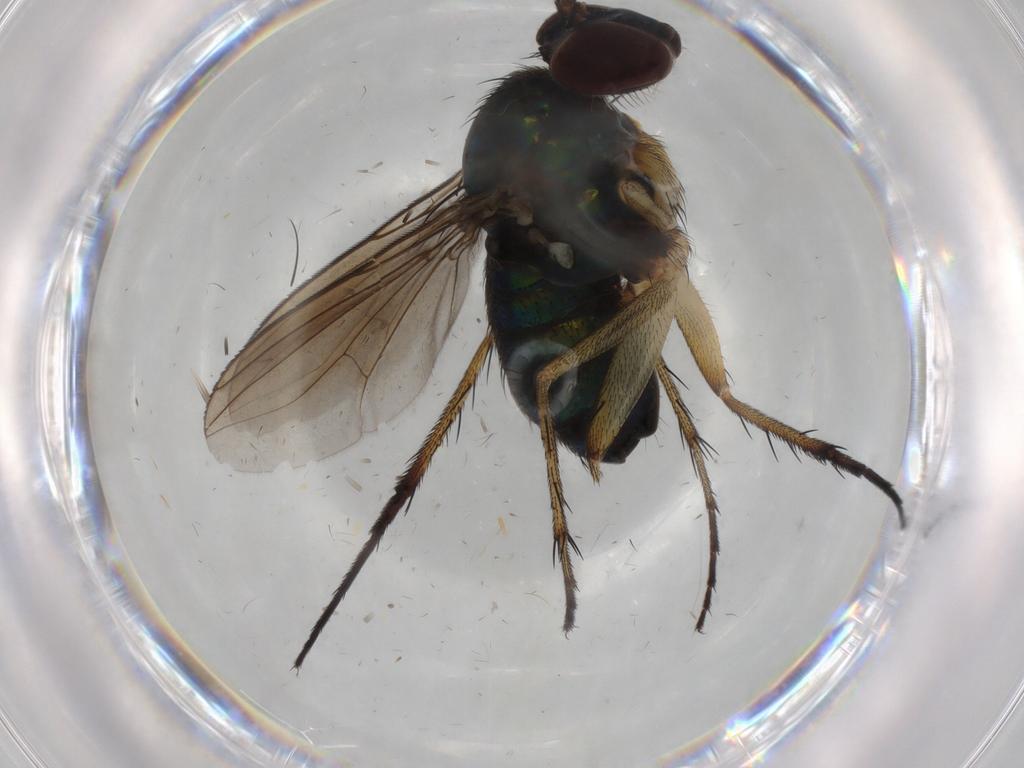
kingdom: Animalia
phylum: Arthropoda
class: Insecta
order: Diptera
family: Dolichopodidae
